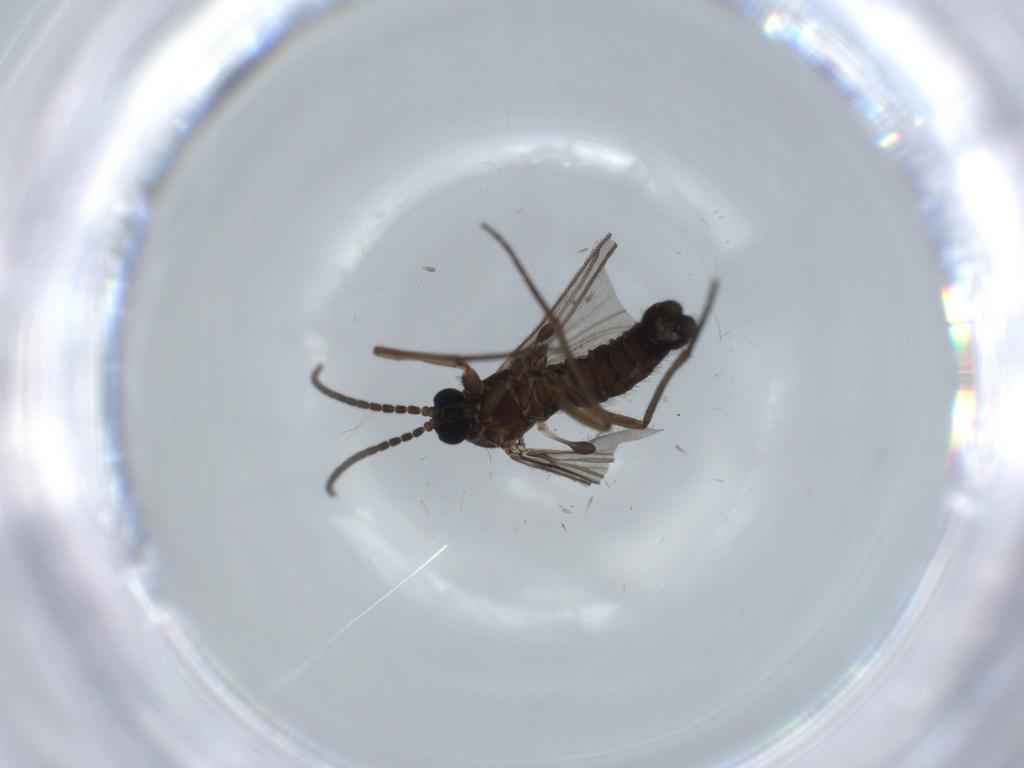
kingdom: Animalia
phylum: Arthropoda
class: Insecta
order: Diptera
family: Sciaridae
